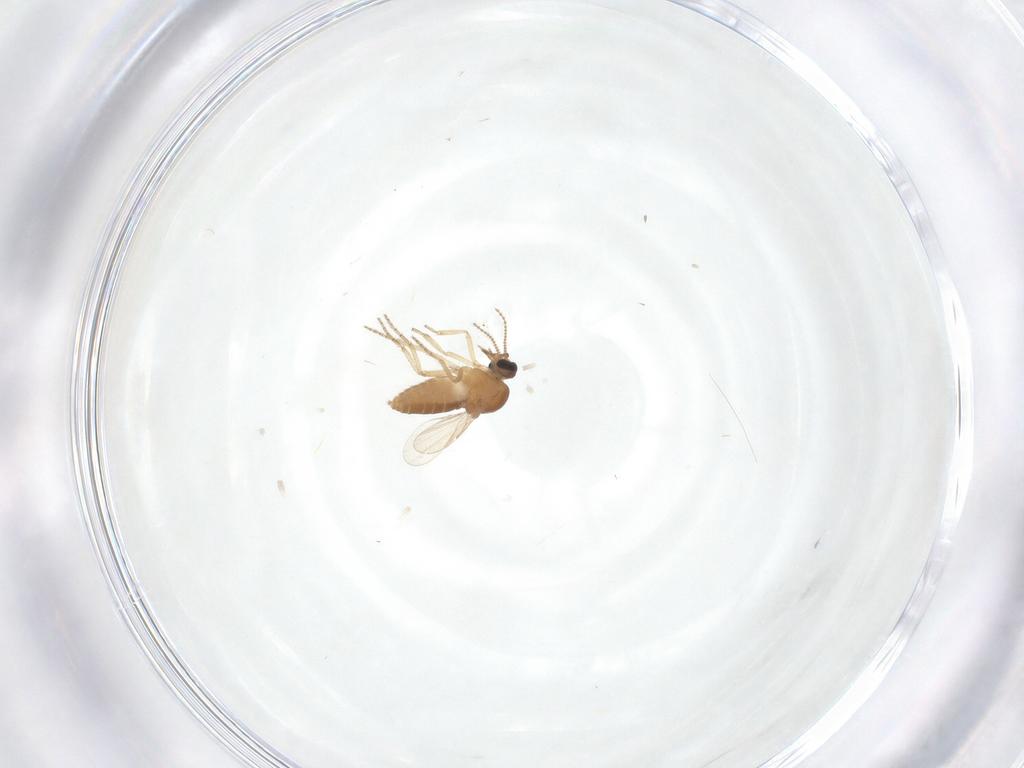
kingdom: Animalia
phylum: Arthropoda
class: Insecta
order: Diptera
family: Ceratopogonidae
